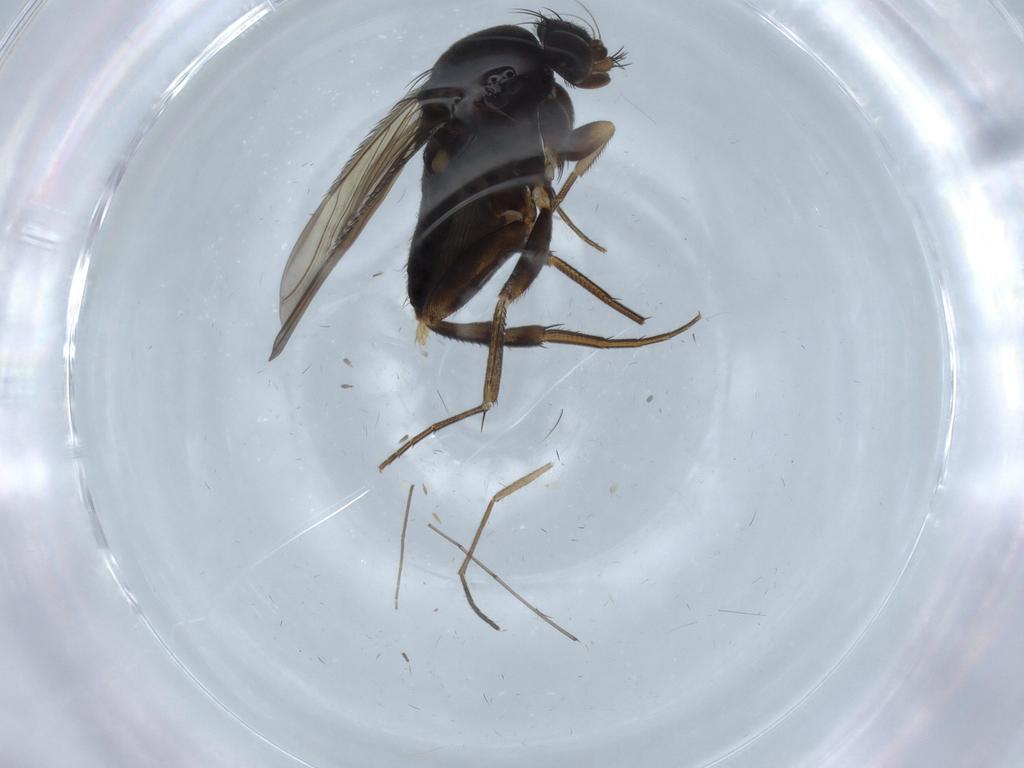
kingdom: Animalia
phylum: Arthropoda
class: Insecta
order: Diptera
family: Phoridae
